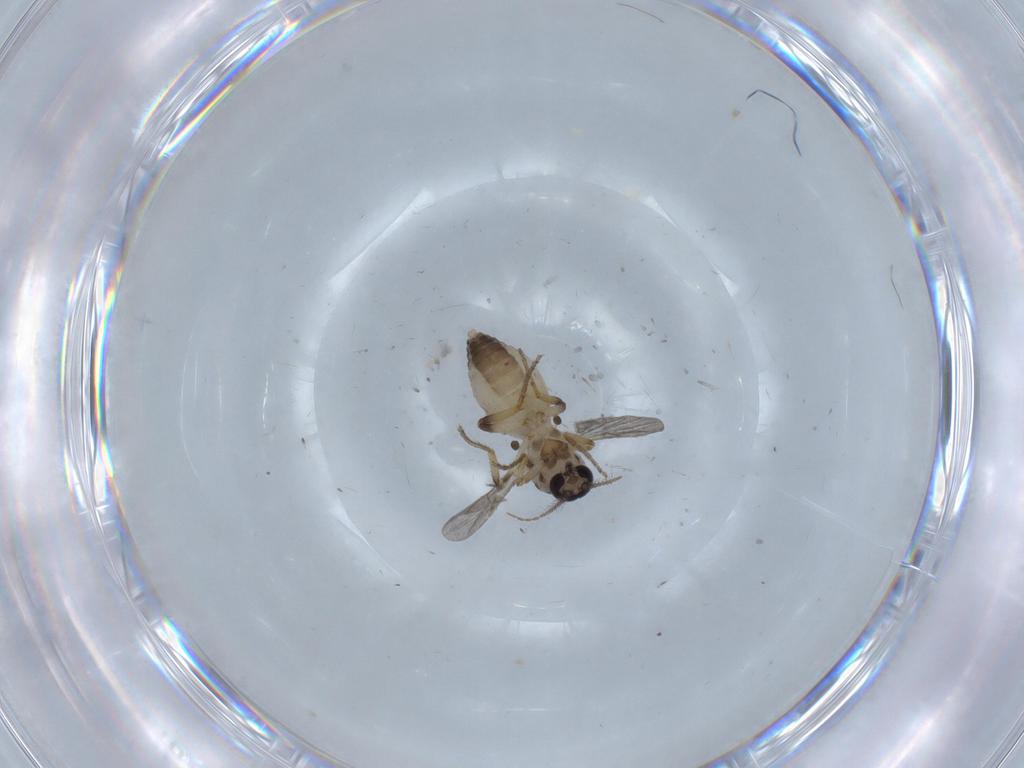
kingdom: Animalia
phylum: Arthropoda
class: Insecta
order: Diptera
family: Ceratopogonidae
